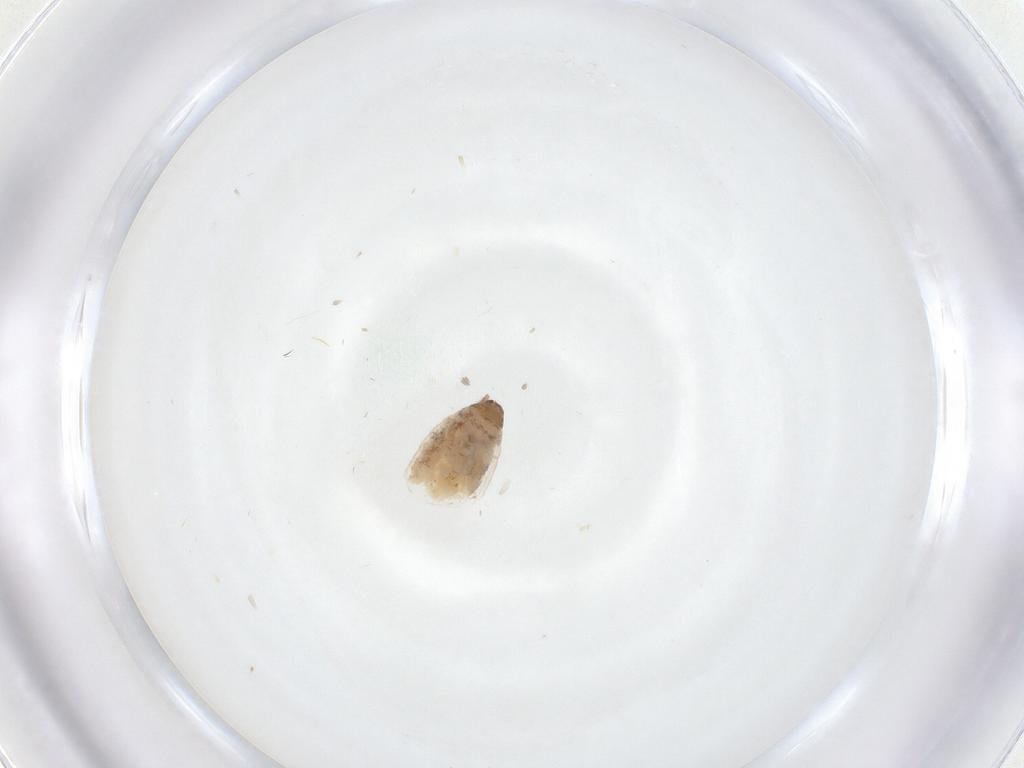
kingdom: Animalia
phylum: Arthropoda
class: Insecta
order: Psocodea
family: Lepidopsocidae
